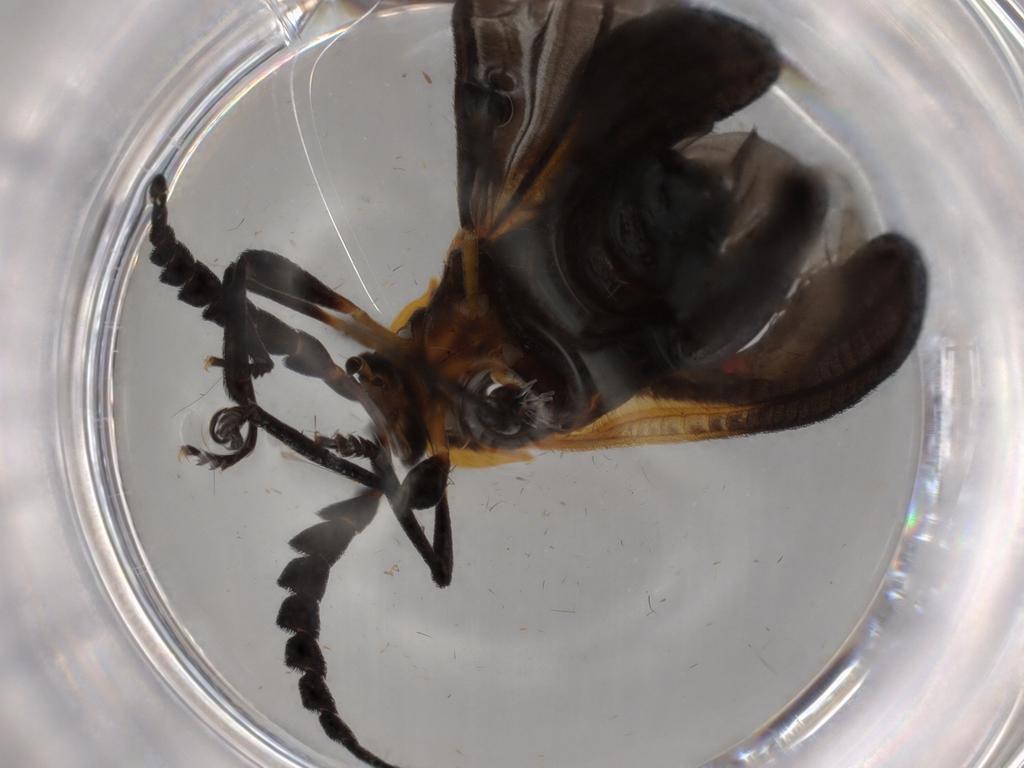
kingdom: Animalia
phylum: Arthropoda
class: Insecta
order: Coleoptera
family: Lycidae
